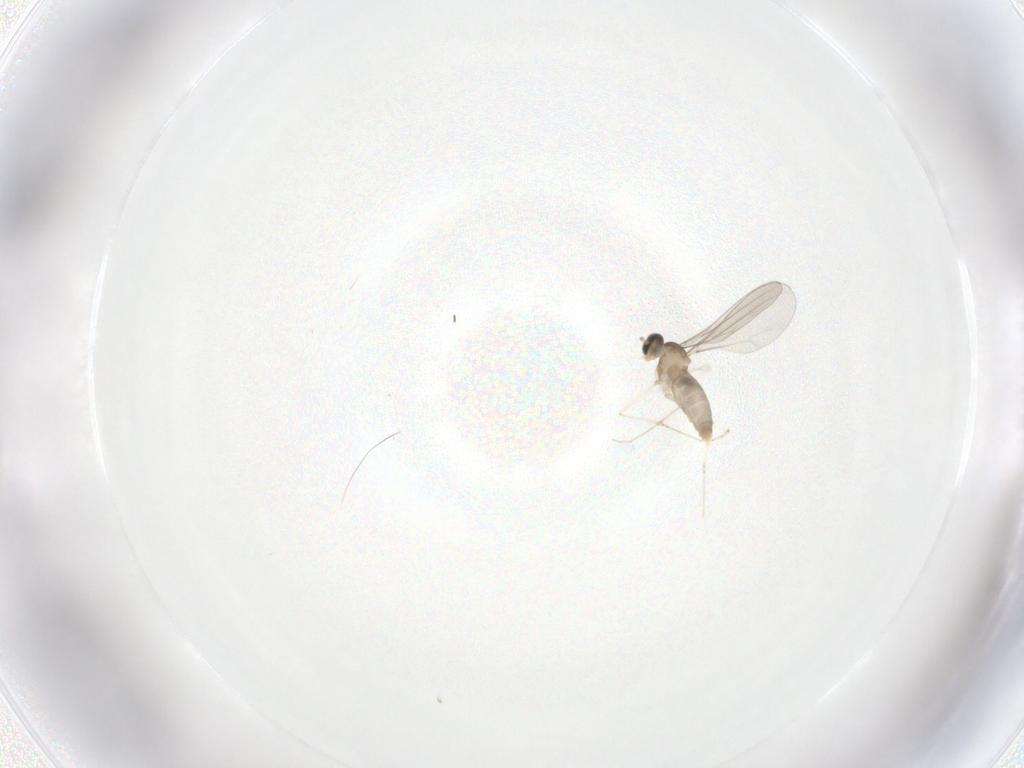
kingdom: Animalia
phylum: Arthropoda
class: Insecta
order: Diptera
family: Cecidomyiidae
